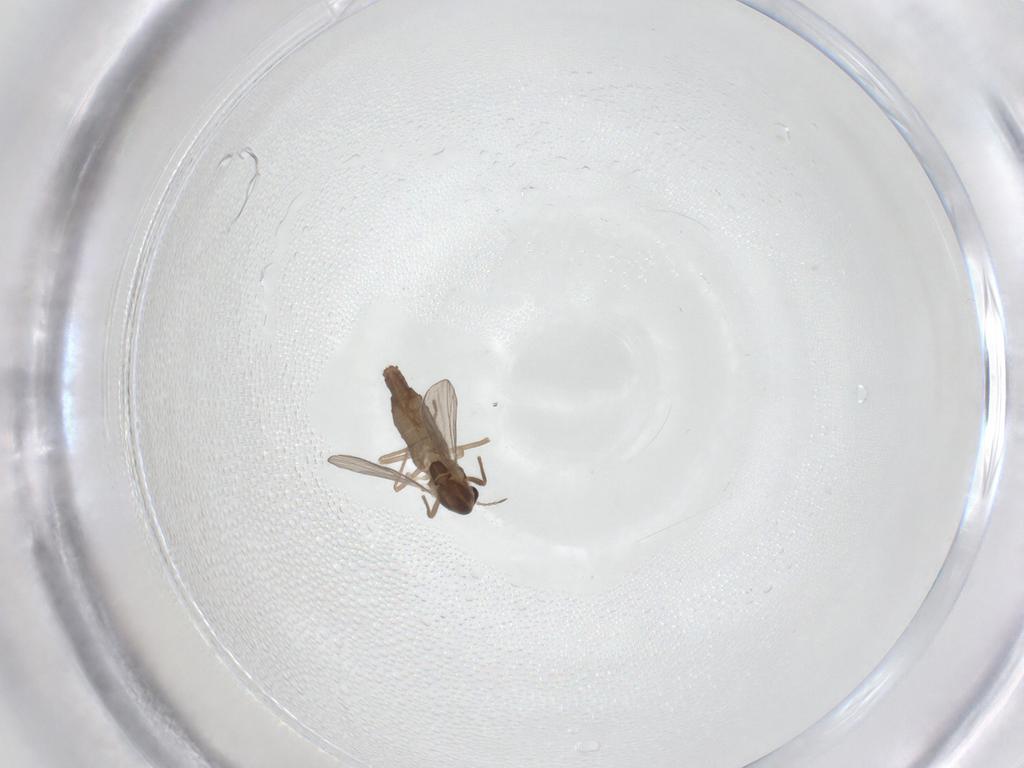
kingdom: Animalia
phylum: Arthropoda
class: Insecta
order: Diptera
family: Chironomidae
